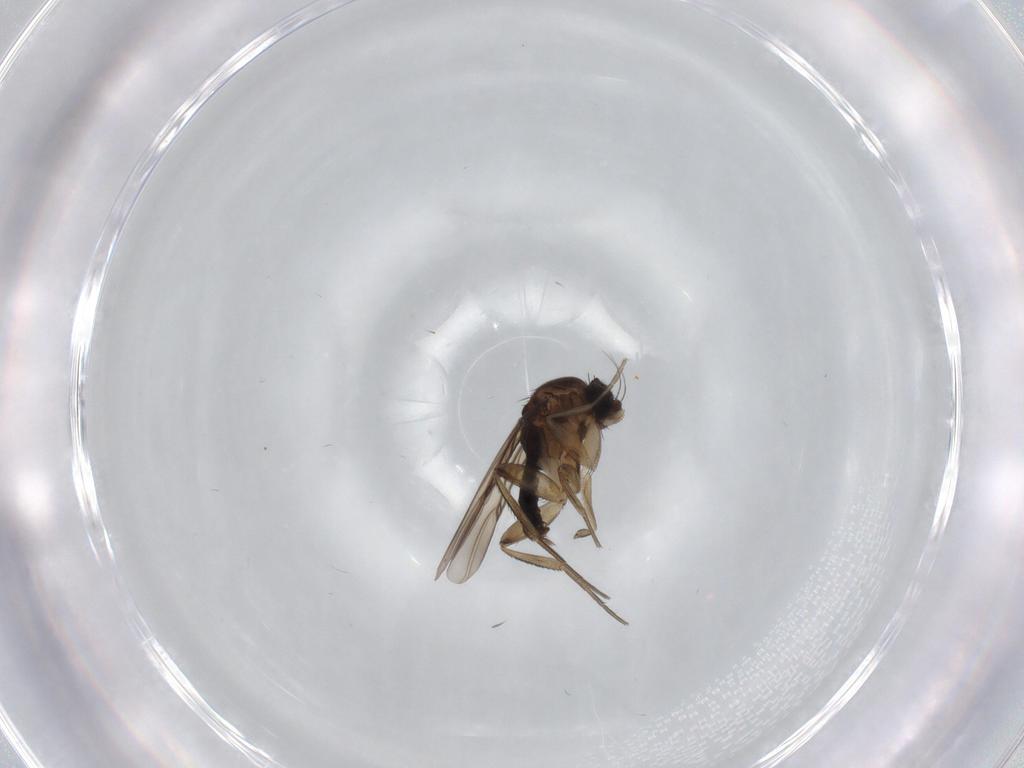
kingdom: Animalia
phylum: Arthropoda
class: Insecta
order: Diptera
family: Phoridae
